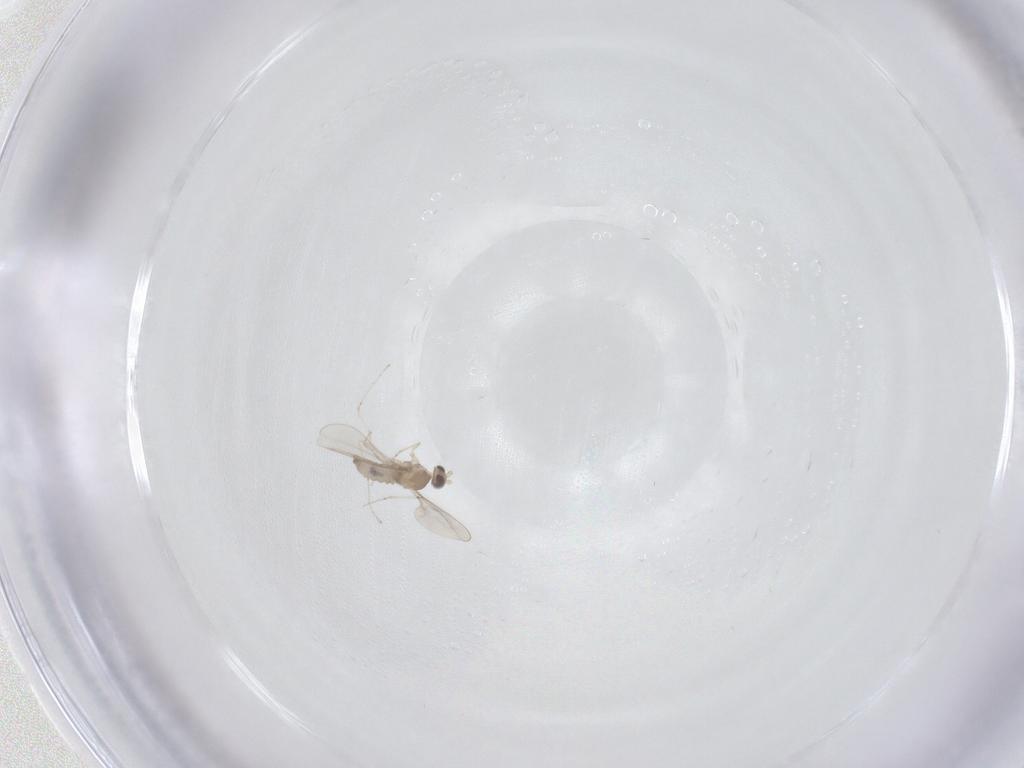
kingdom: Animalia
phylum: Arthropoda
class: Insecta
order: Diptera
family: Cecidomyiidae
